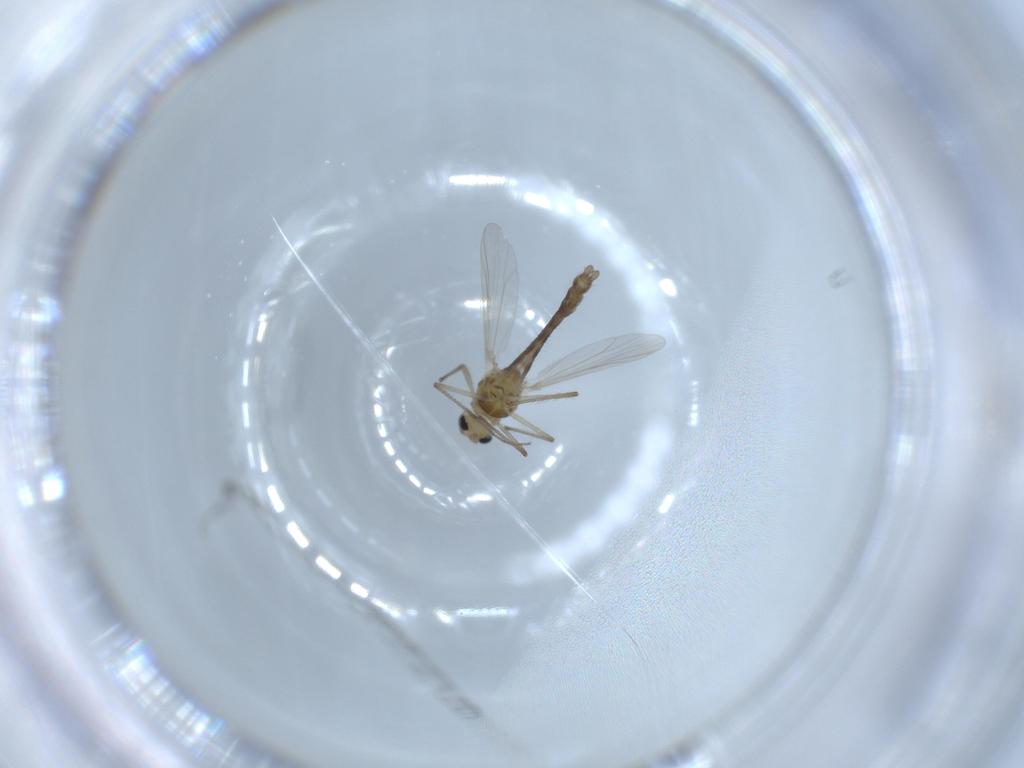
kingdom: Animalia
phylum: Arthropoda
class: Insecta
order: Diptera
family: Chironomidae
